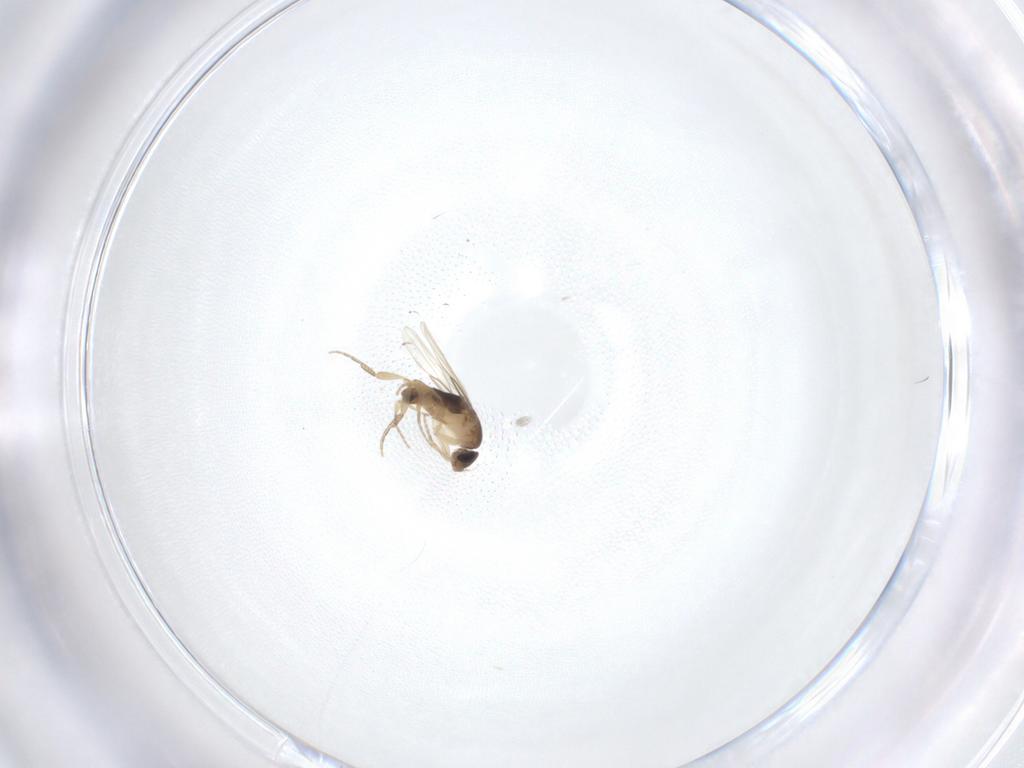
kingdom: Animalia
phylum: Arthropoda
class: Insecta
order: Diptera
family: Phoridae
